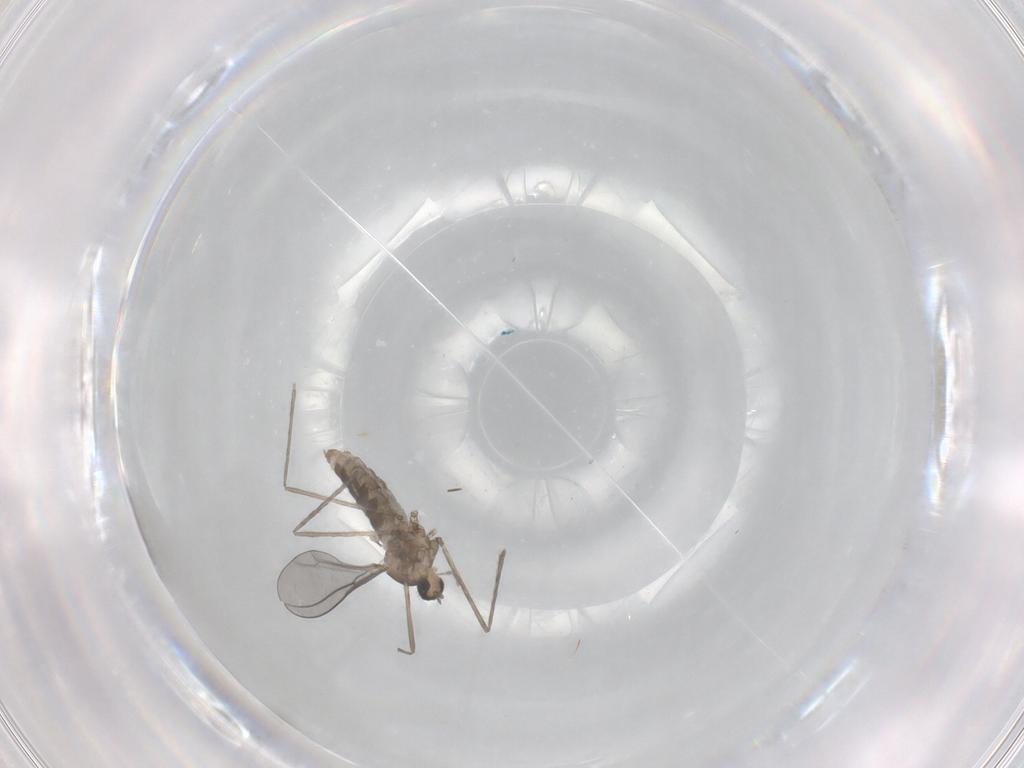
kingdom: Animalia
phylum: Arthropoda
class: Insecta
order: Diptera
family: Cecidomyiidae
